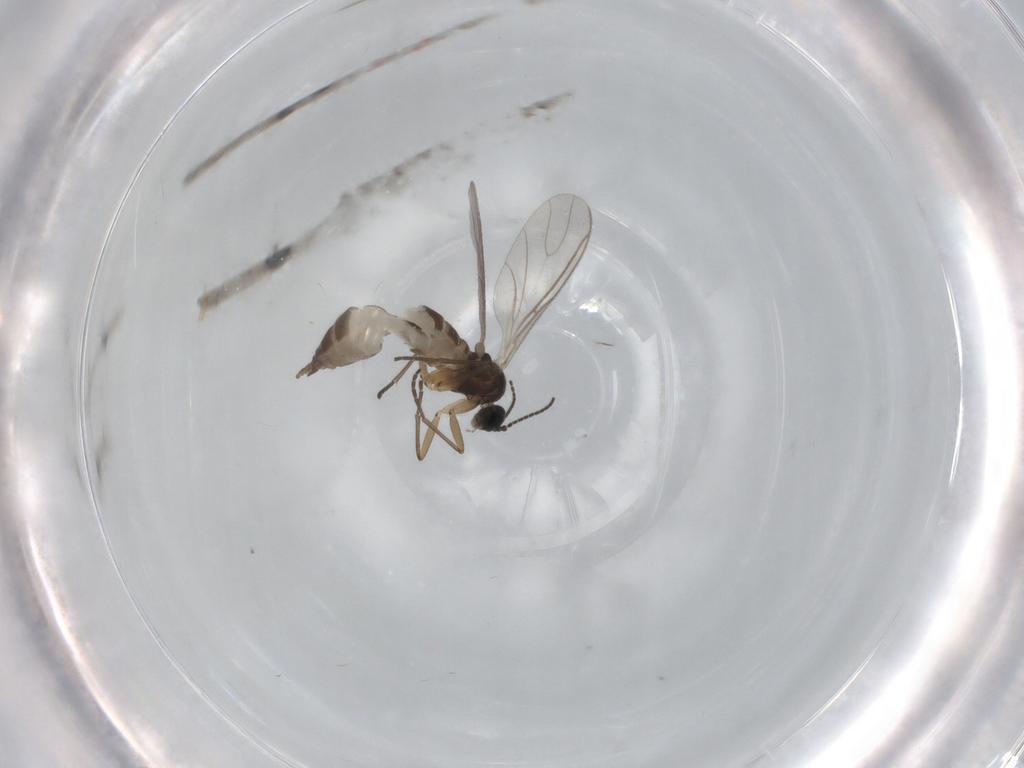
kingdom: Animalia
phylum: Arthropoda
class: Insecta
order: Diptera
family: Sciaridae
